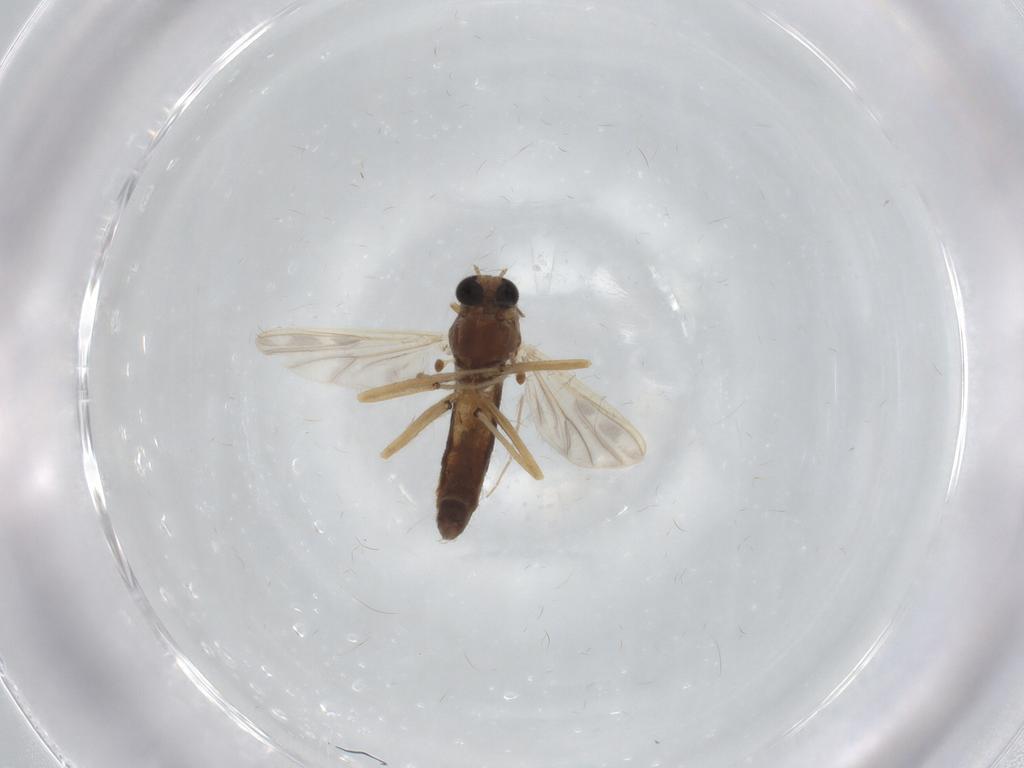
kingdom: Animalia
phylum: Arthropoda
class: Insecta
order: Diptera
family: Chironomidae
